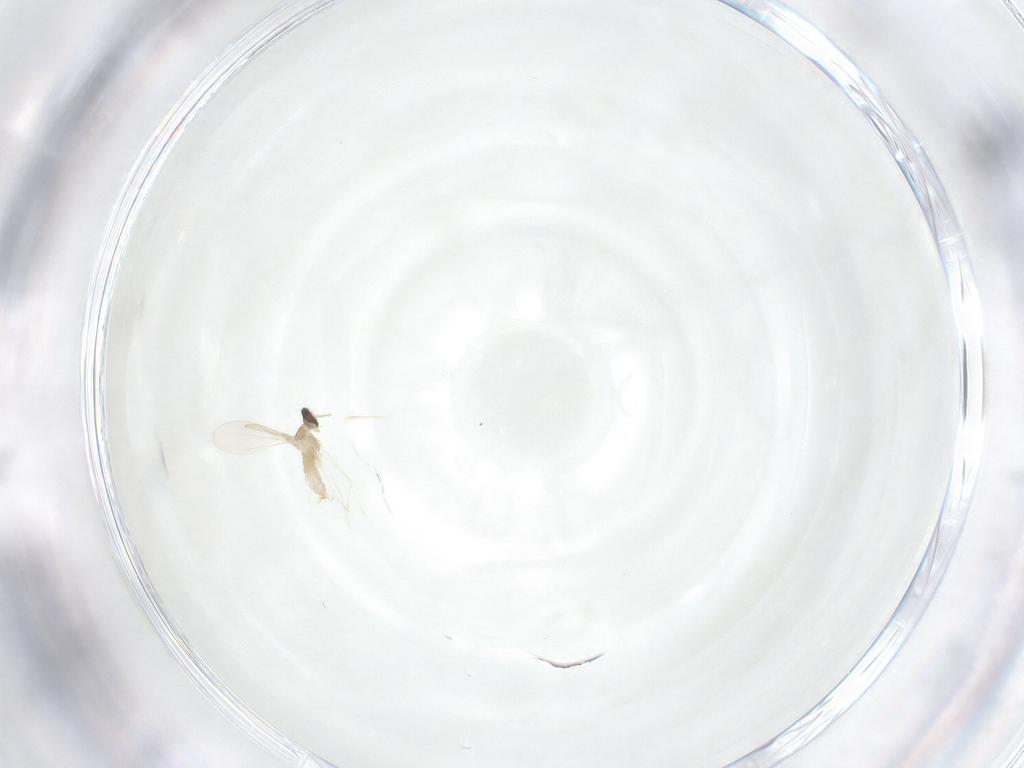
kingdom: Animalia
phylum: Arthropoda
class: Insecta
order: Diptera
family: Cecidomyiidae
